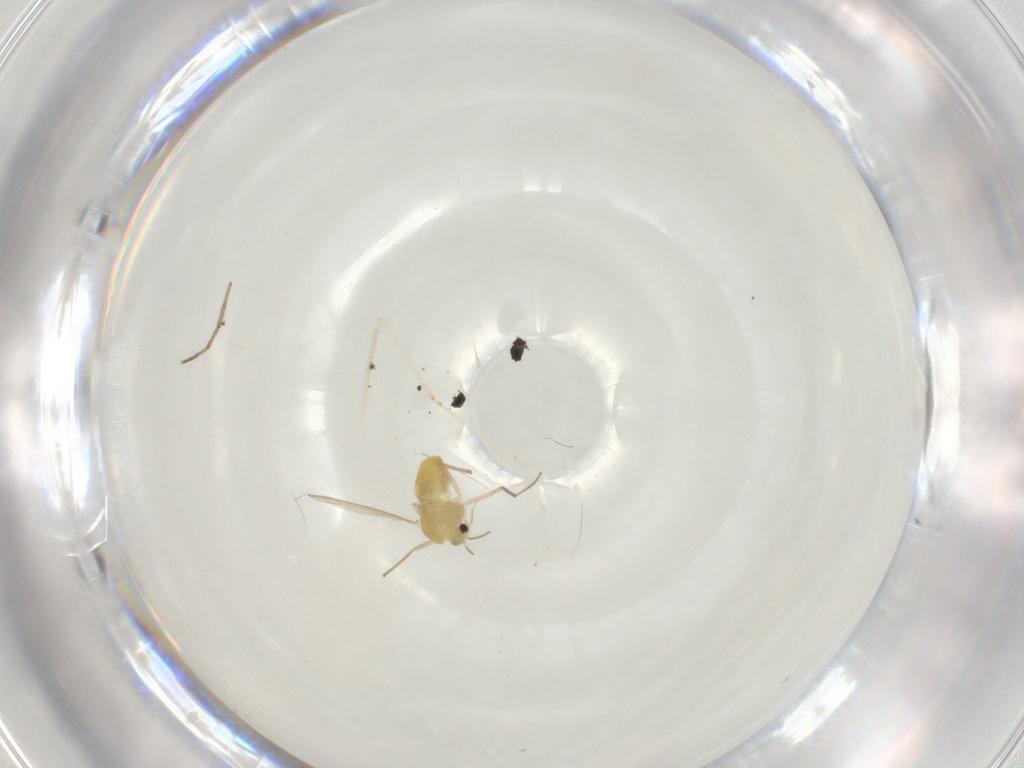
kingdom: Animalia
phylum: Arthropoda
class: Insecta
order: Diptera
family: Chironomidae
